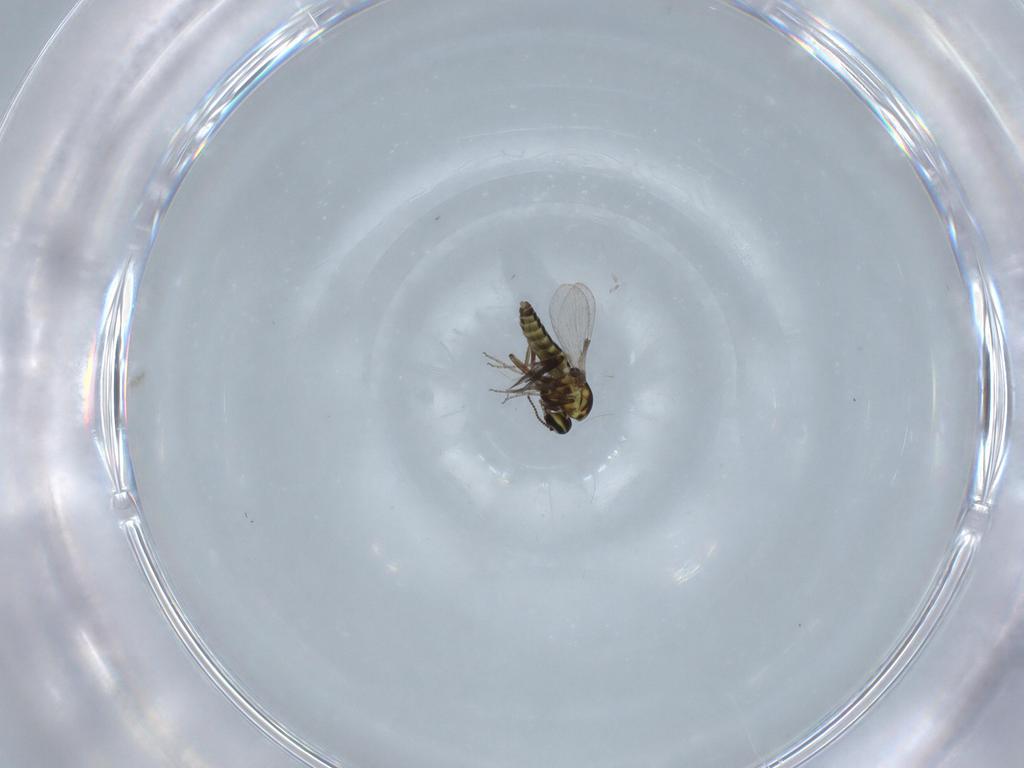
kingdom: Animalia
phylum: Arthropoda
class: Insecta
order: Diptera
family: Ceratopogonidae
